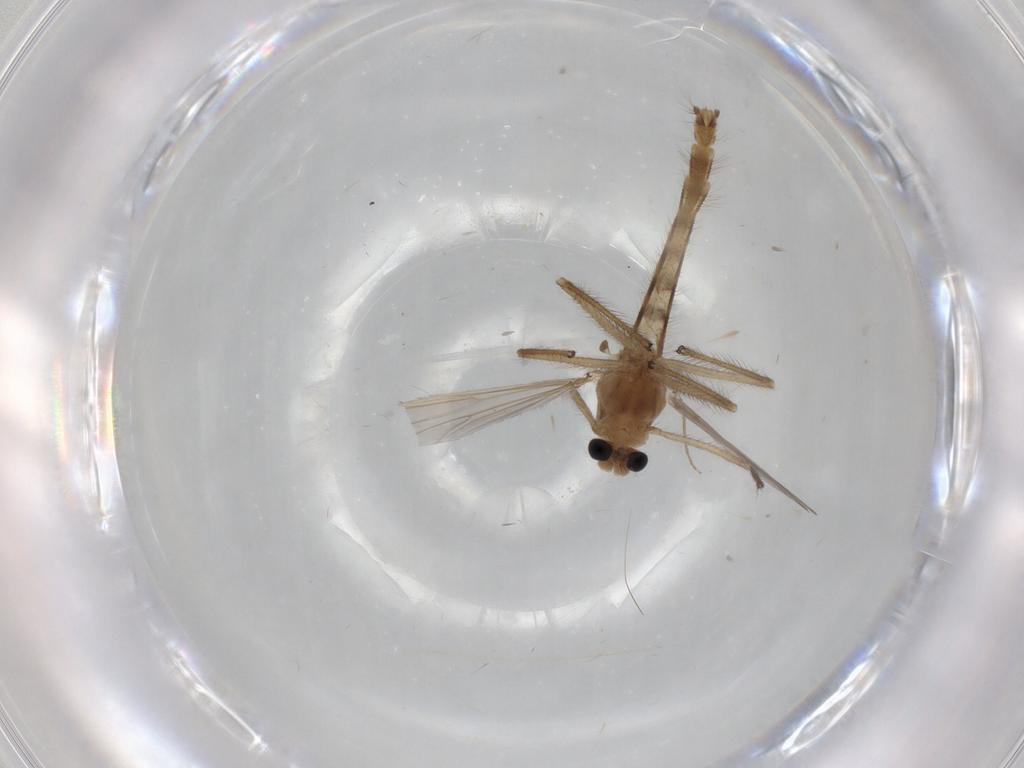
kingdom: Animalia
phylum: Arthropoda
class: Insecta
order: Diptera
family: Chironomidae
